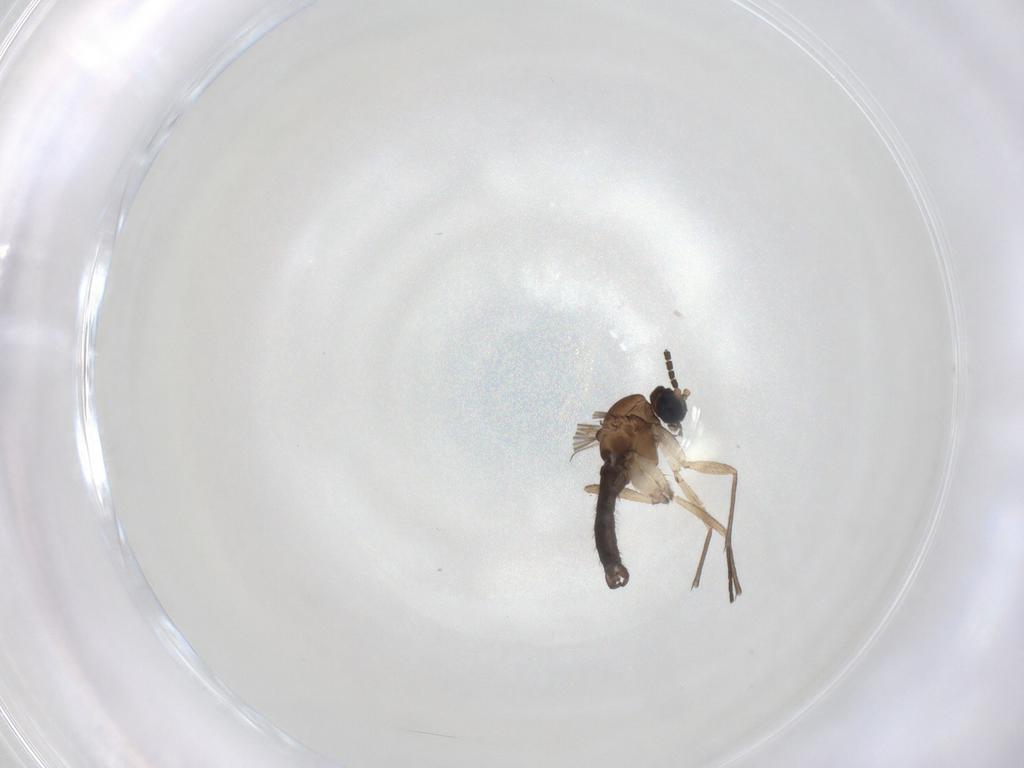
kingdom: Animalia
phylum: Arthropoda
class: Insecta
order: Diptera
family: Sciaridae
